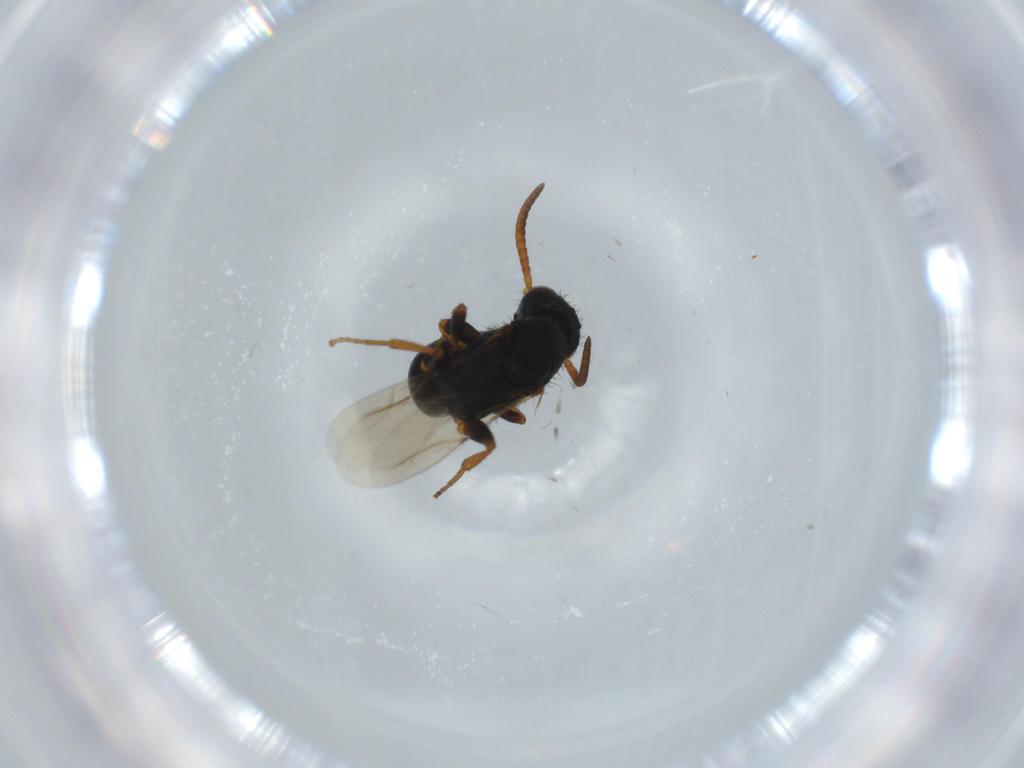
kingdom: Animalia
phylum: Arthropoda
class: Insecta
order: Hymenoptera
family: Bethylidae
